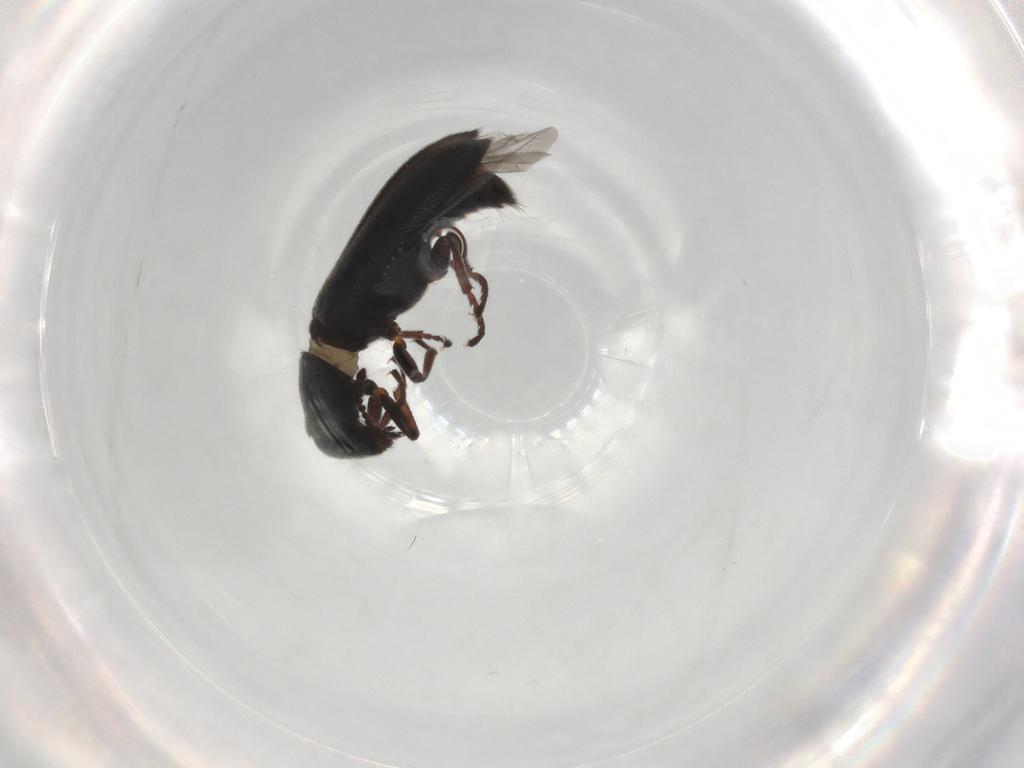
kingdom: Animalia
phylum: Arthropoda
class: Insecta
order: Coleoptera
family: Melyridae
